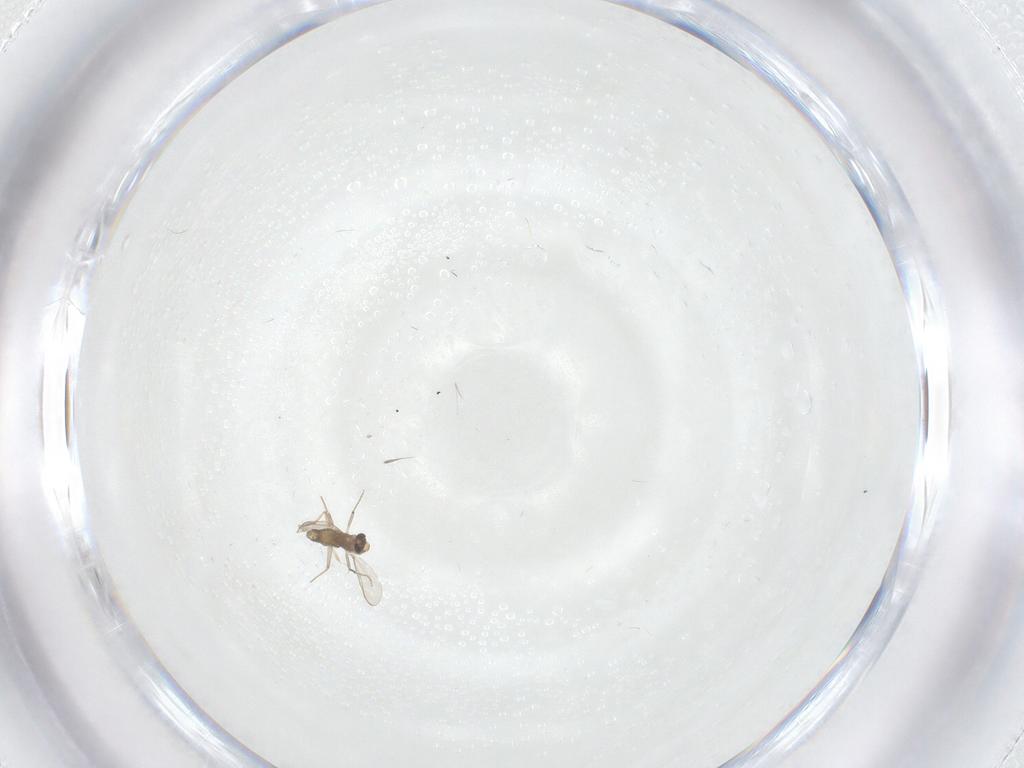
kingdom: Animalia
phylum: Arthropoda
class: Insecta
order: Diptera
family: Chironomidae
